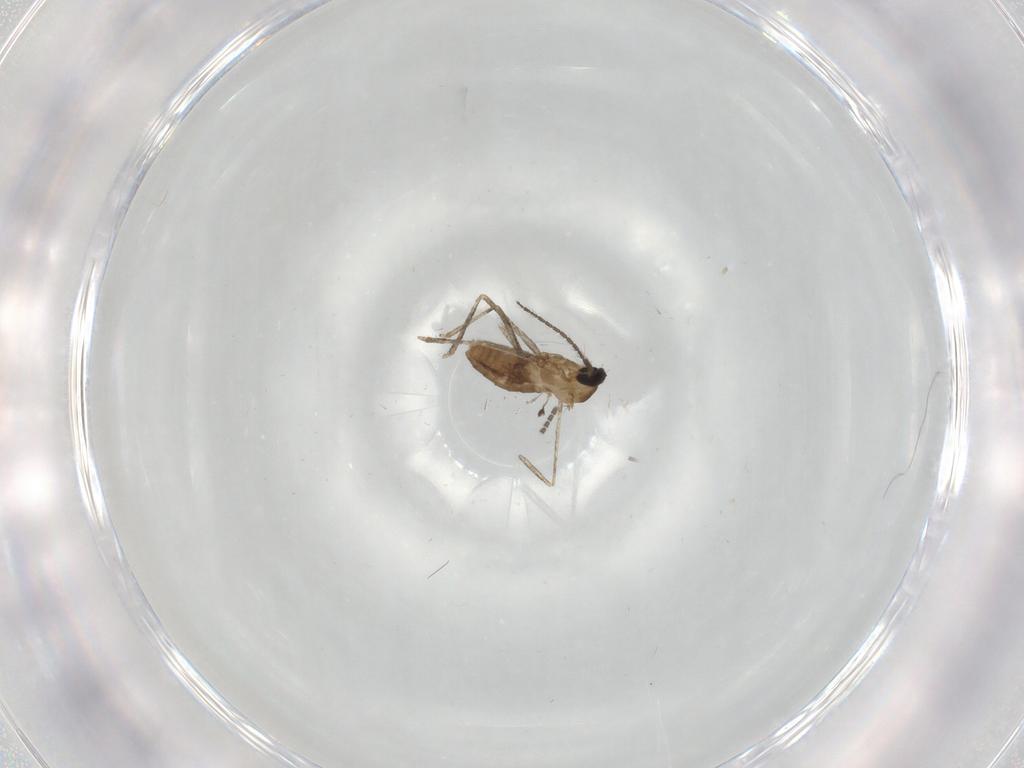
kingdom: Animalia
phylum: Arthropoda
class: Insecta
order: Diptera
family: Cecidomyiidae
